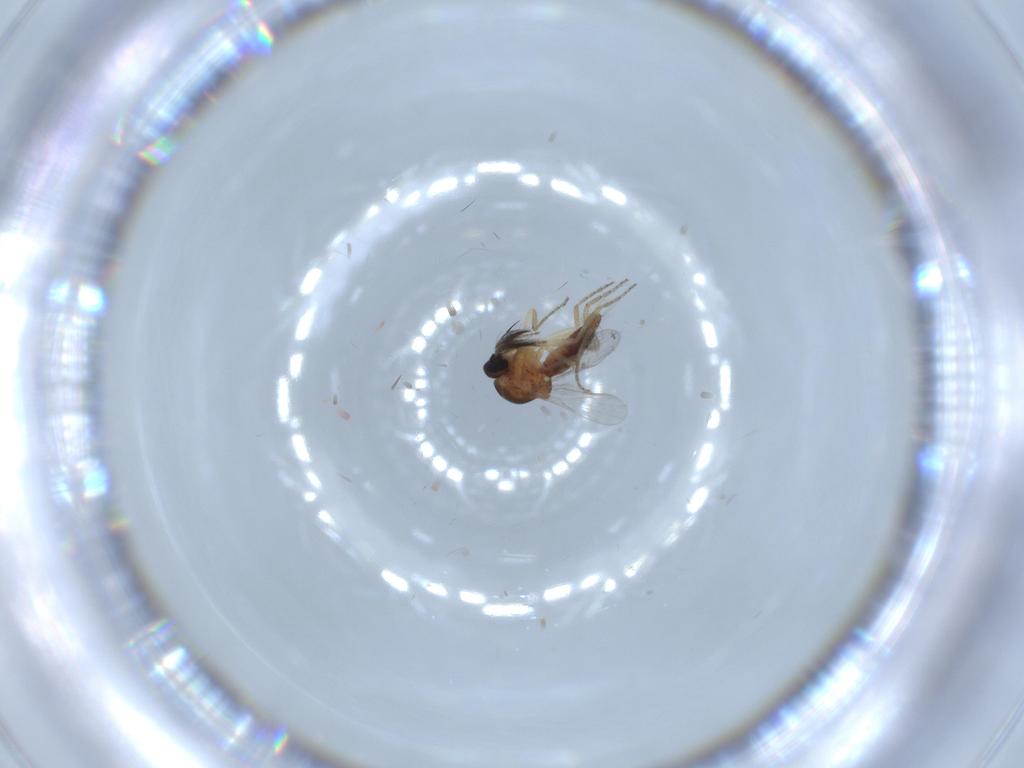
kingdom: Animalia
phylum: Arthropoda
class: Insecta
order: Diptera
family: Ceratopogonidae
